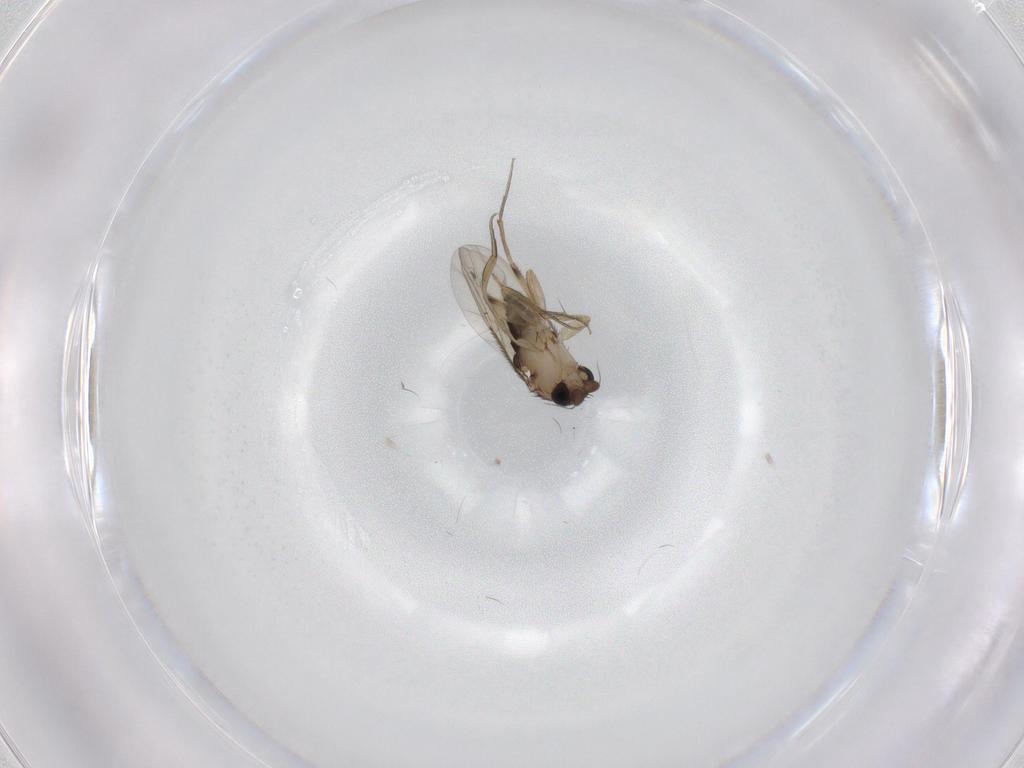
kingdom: Animalia
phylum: Arthropoda
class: Insecta
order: Diptera
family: Phoridae
